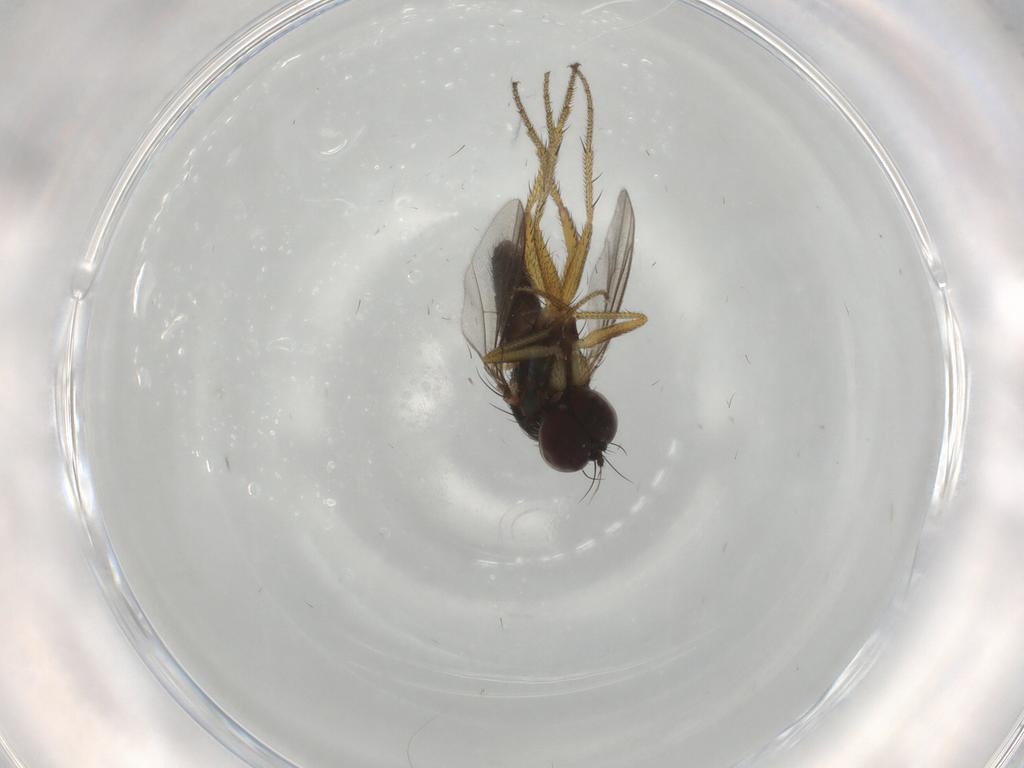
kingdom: Animalia
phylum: Arthropoda
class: Insecta
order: Diptera
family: Dolichopodidae
